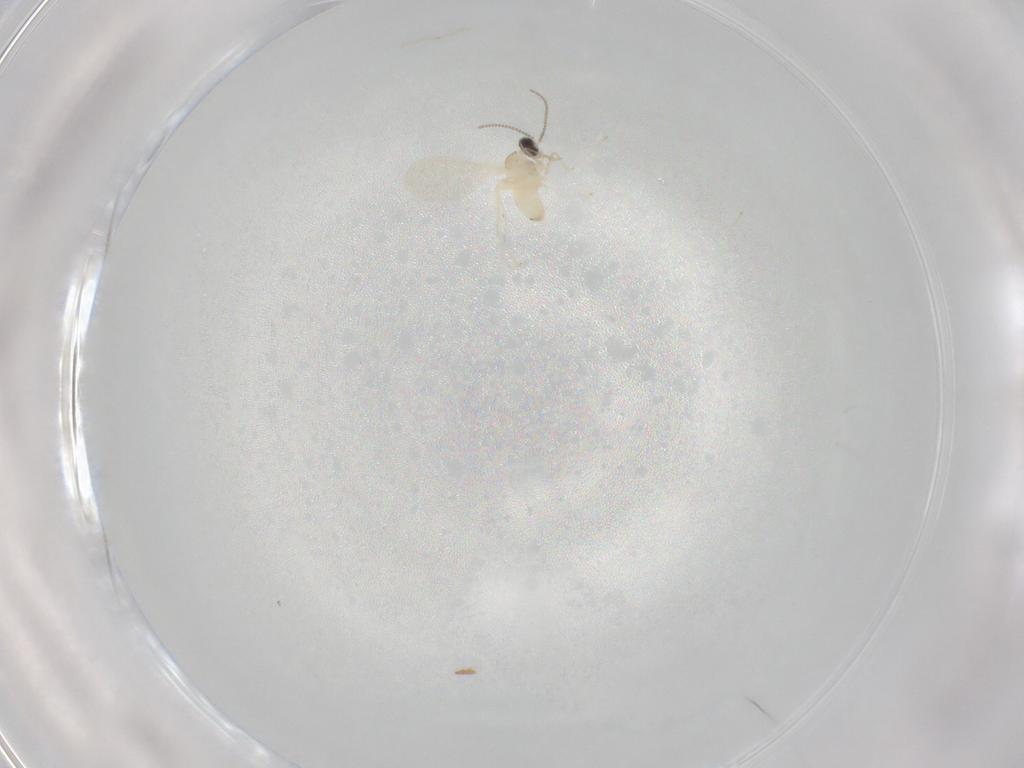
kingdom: Animalia
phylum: Arthropoda
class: Insecta
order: Diptera
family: Cecidomyiidae
